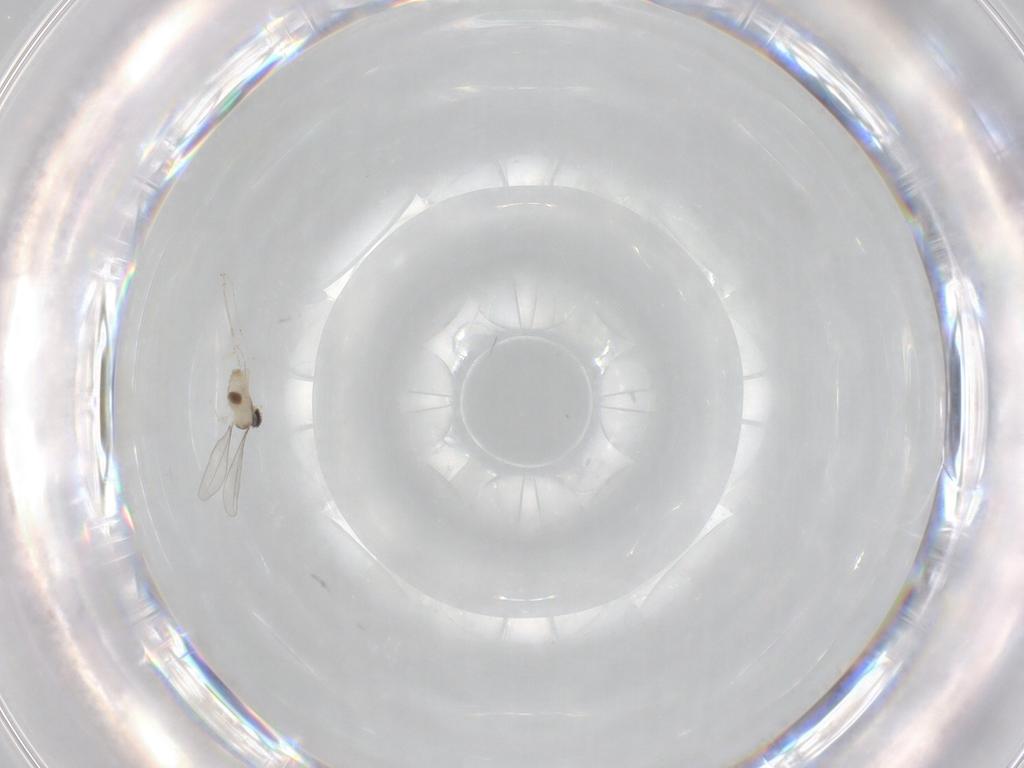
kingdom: Animalia
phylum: Arthropoda
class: Insecta
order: Diptera
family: Cecidomyiidae
